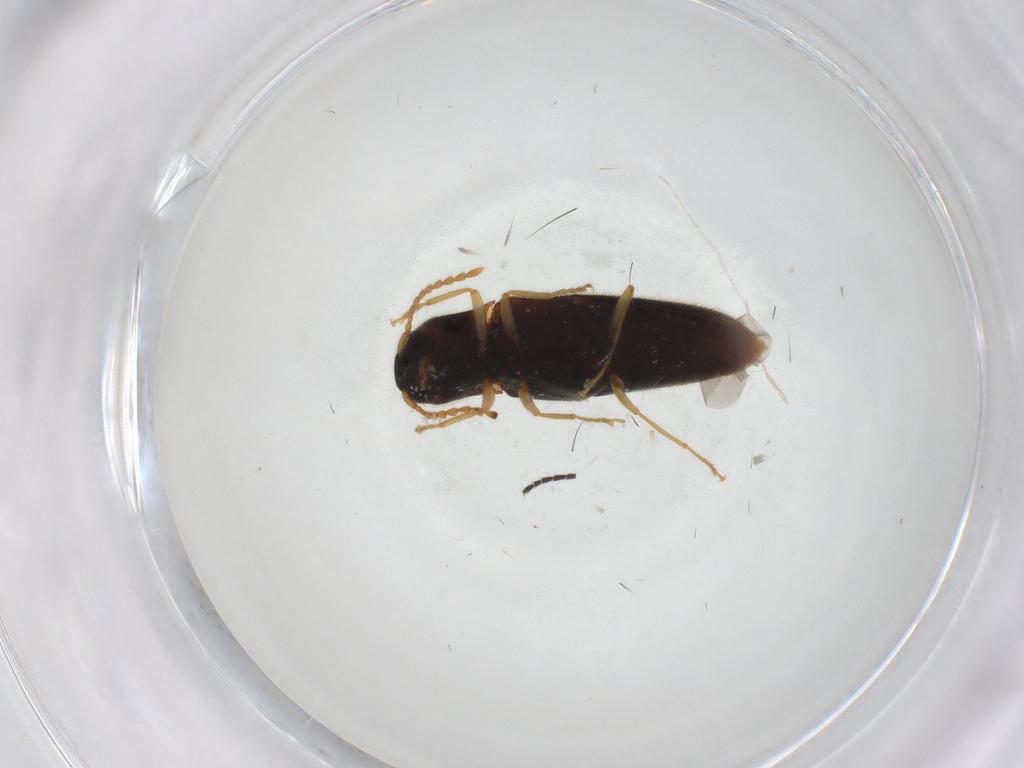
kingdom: Animalia
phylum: Arthropoda
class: Insecta
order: Coleoptera
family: Elateridae
